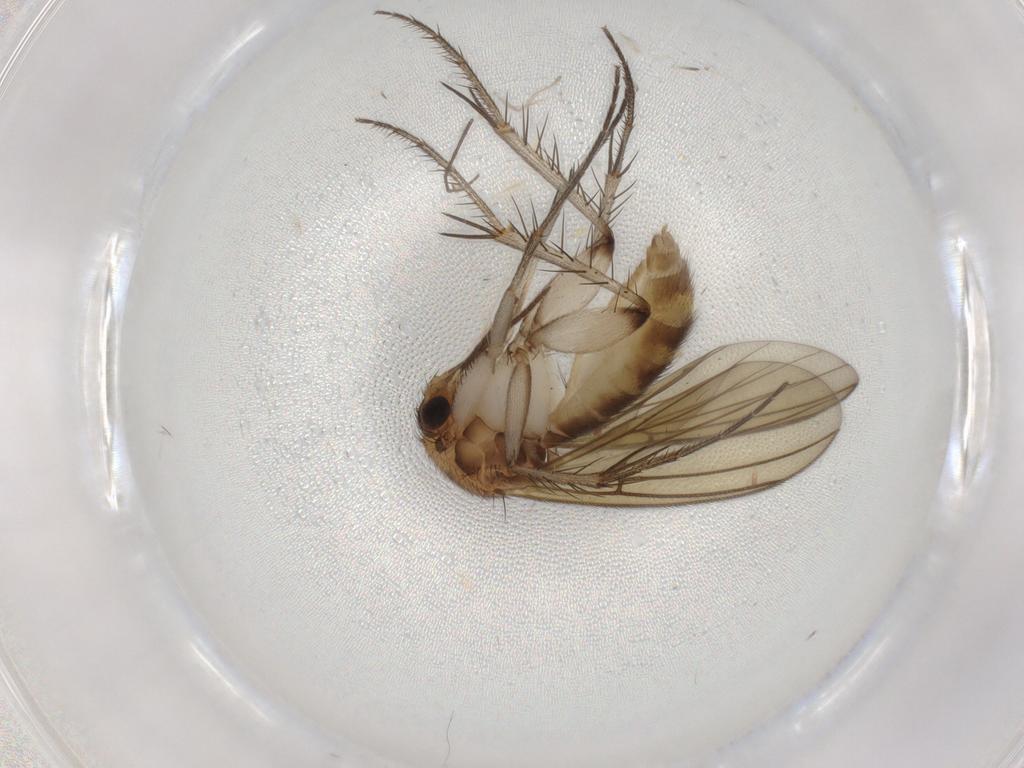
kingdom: Animalia
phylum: Arthropoda
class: Insecta
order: Diptera
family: Mycetophilidae
